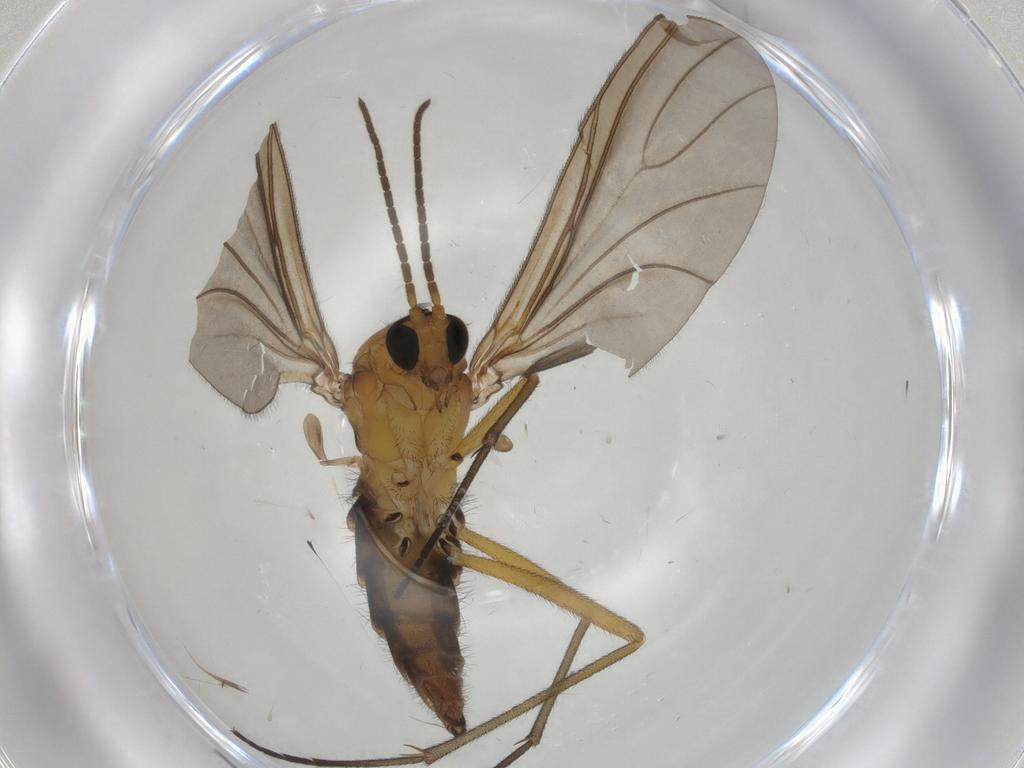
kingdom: Animalia
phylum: Arthropoda
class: Insecta
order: Diptera
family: Sciaridae
